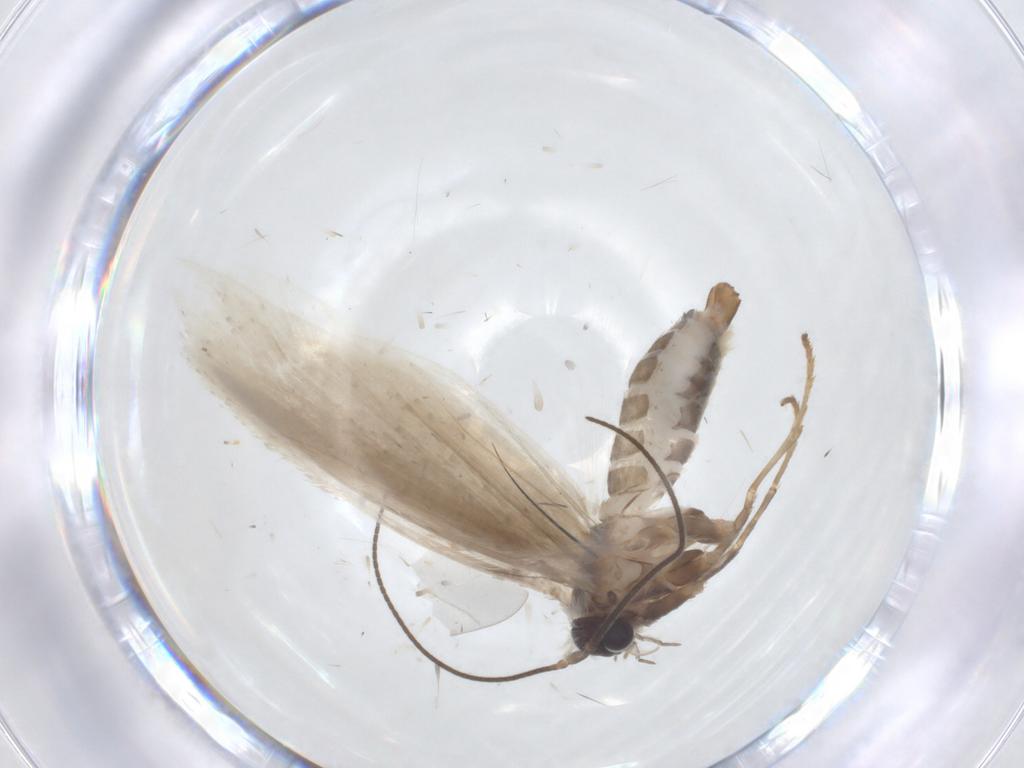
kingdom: Animalia
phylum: Arthropoda
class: Insecta
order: Lepidoptera
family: Tridentaformidae
